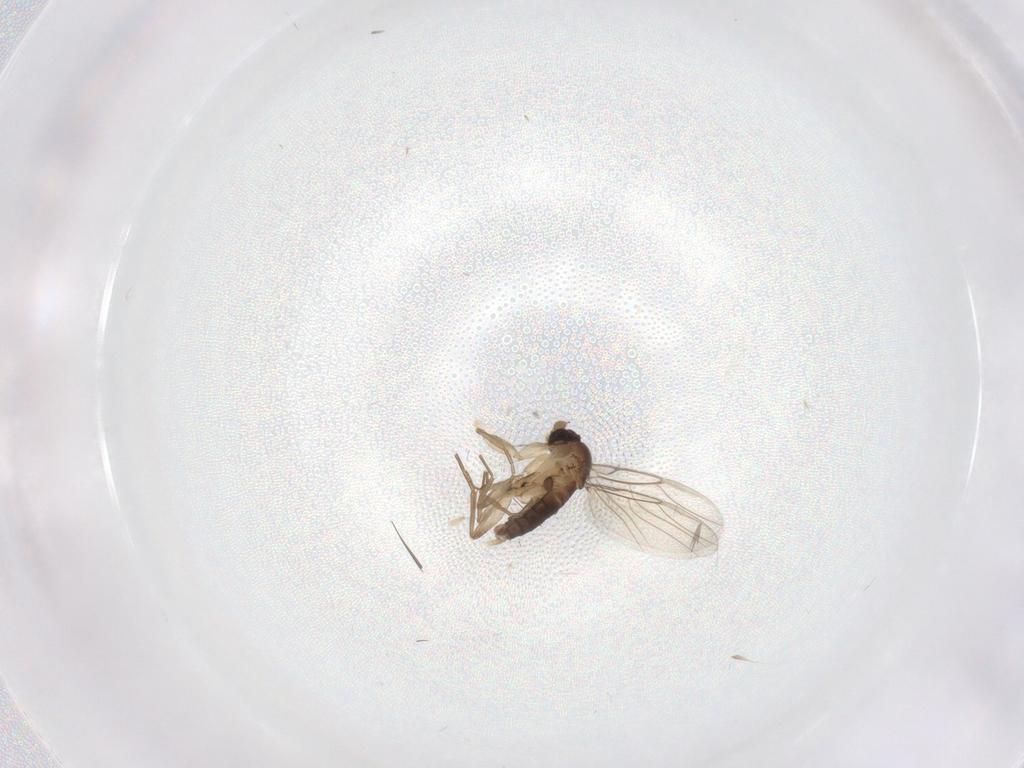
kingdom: Animalia
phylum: Arthropoda
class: Insecta
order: Diptera
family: Cecidomyiidae
